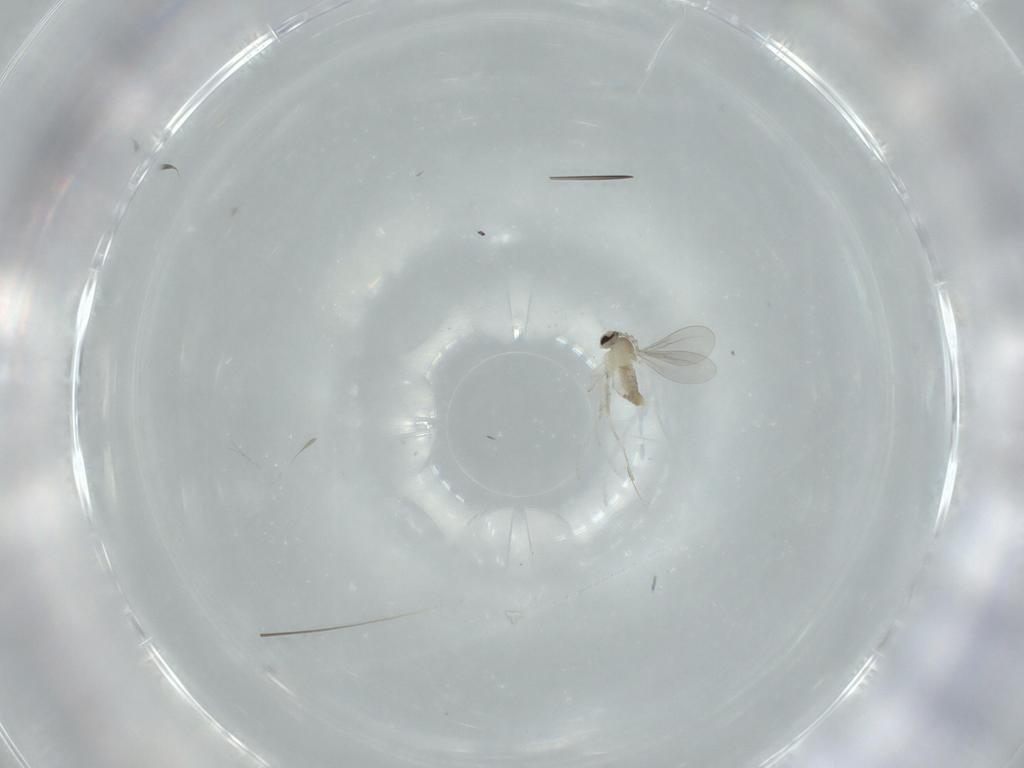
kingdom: Animalia
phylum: Arthropoda
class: Insecta
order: Diptera
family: Cecidomyiidae
